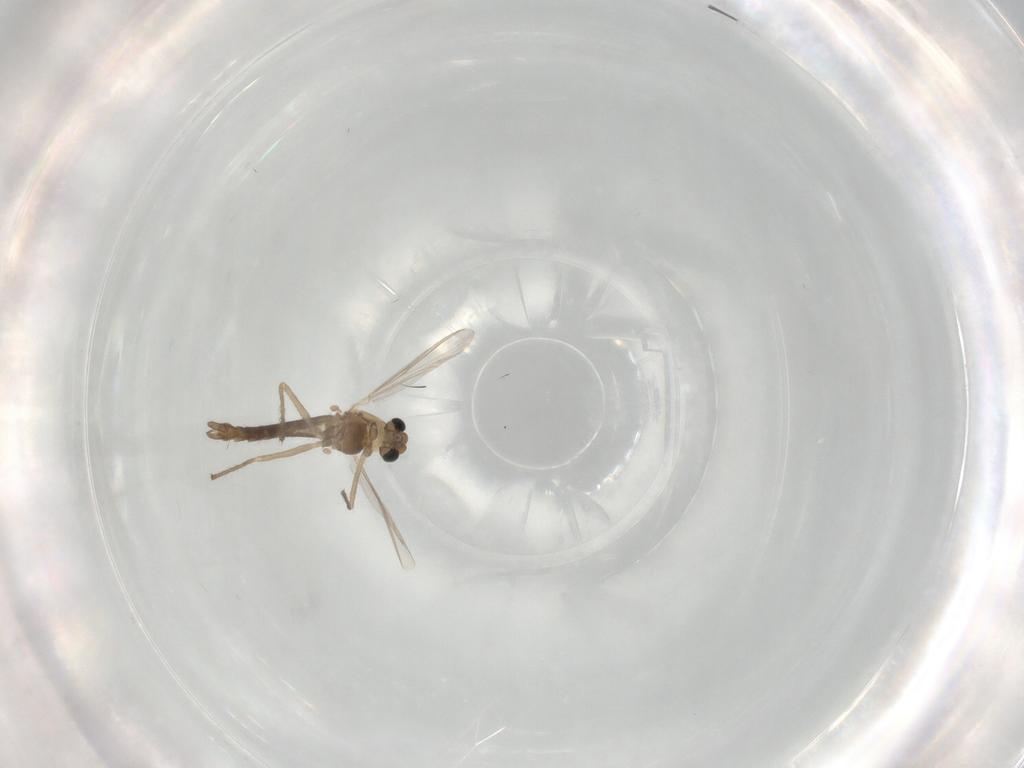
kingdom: Animalia
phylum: Arthropoda
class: Insecta
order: Diptera
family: Chironomidae
